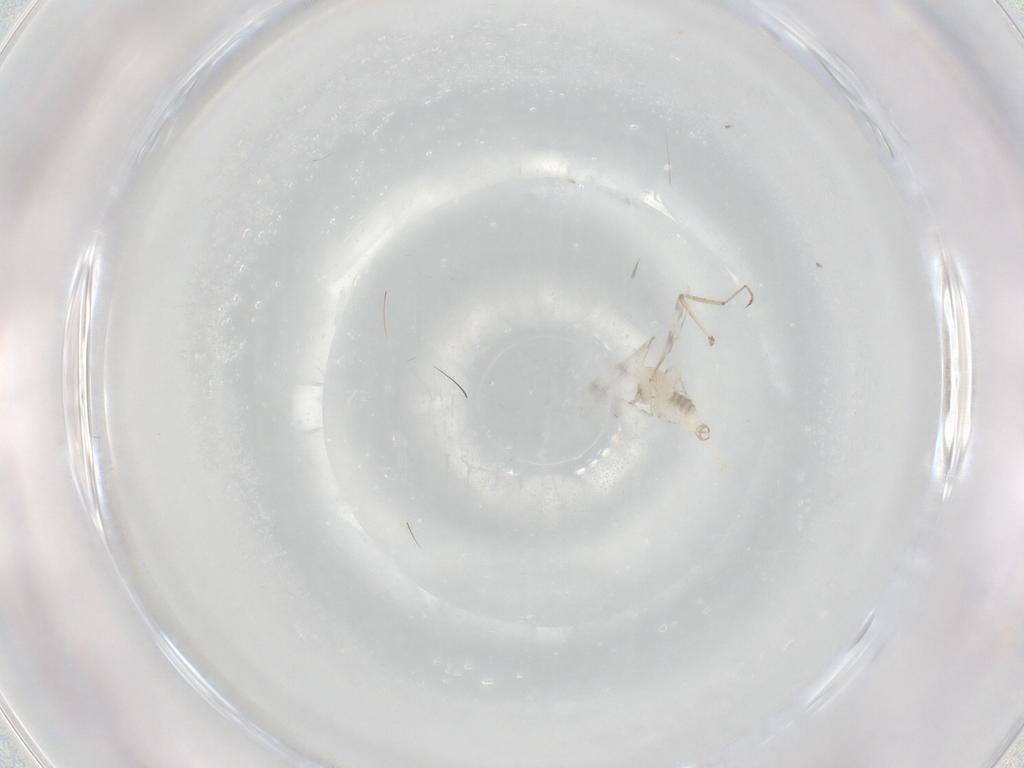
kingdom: Animalia
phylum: Arthropoda
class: Insecta
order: Diptera
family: Cecidomyiidae
